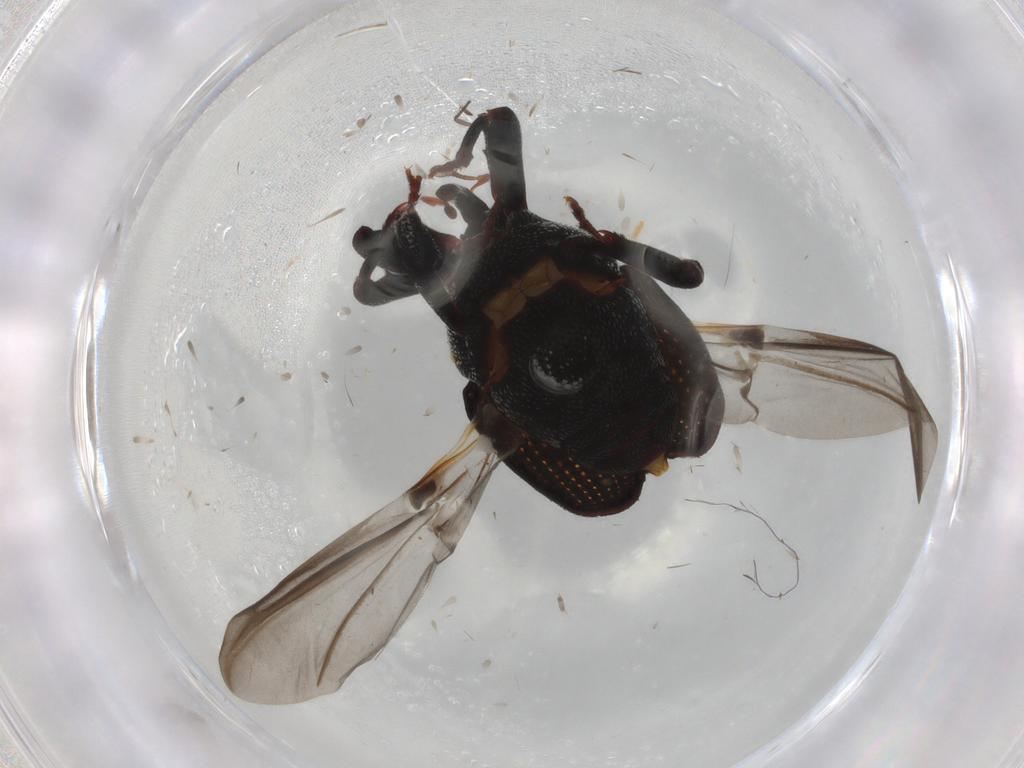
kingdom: Animalia
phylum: Arthropoda
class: Insecta
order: Coleoptera
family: Curculionidae
